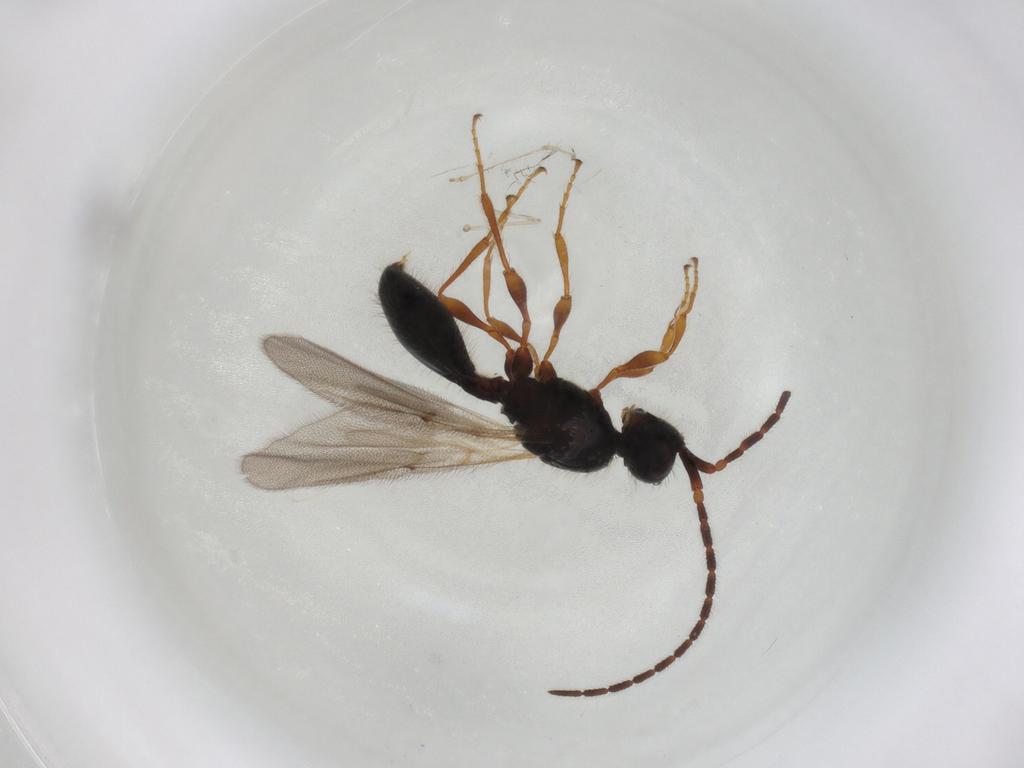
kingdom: Animalia
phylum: Arthropoda
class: Insecta
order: Hymenoptera
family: Diapriidae
